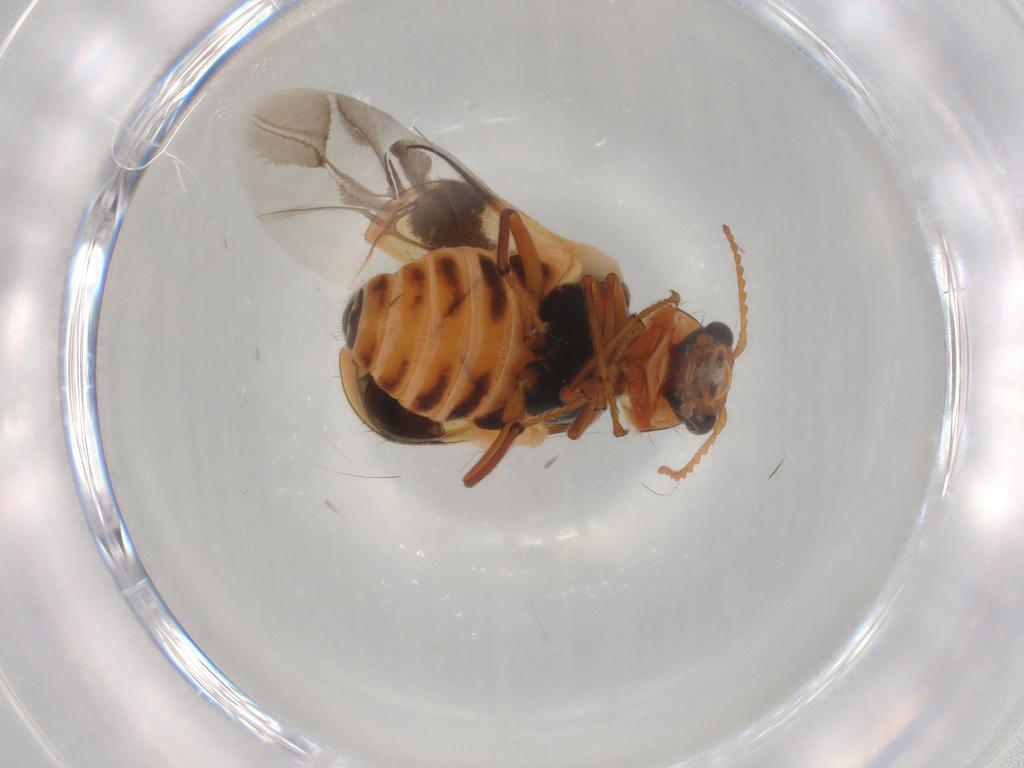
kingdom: Animalia
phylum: Arthropoda
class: Insecta
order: Coleoptera
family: Melyridae
